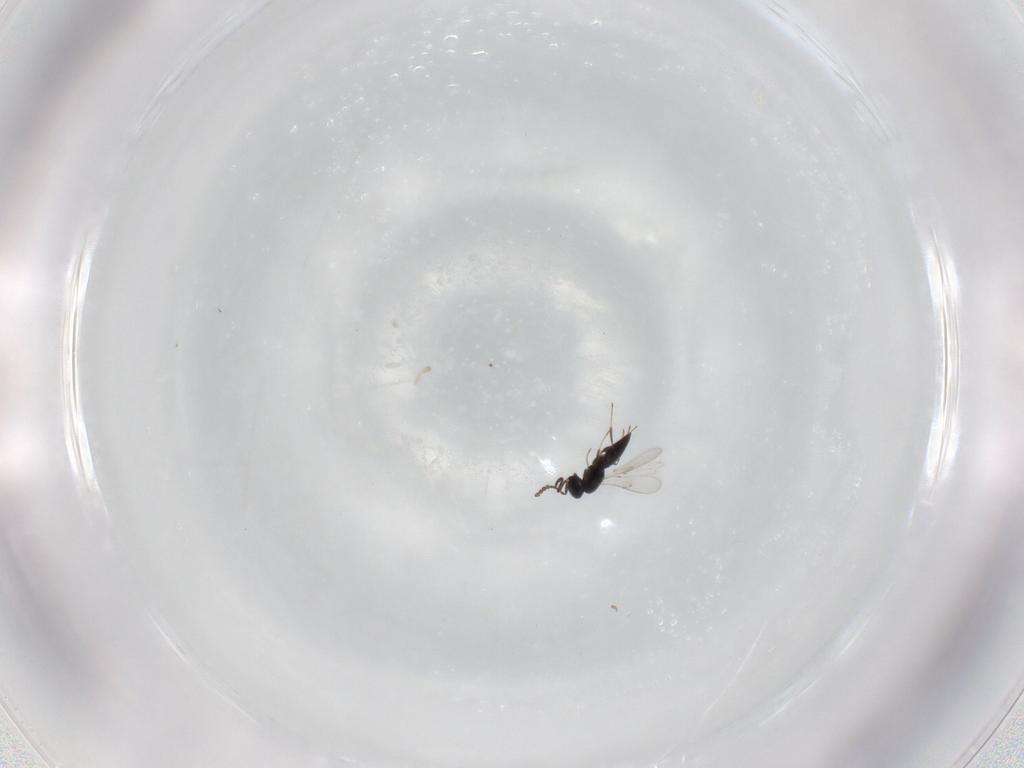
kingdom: Animalia
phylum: Arthropoda
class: Insecta
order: Hymenoptera
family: Scelionidae
